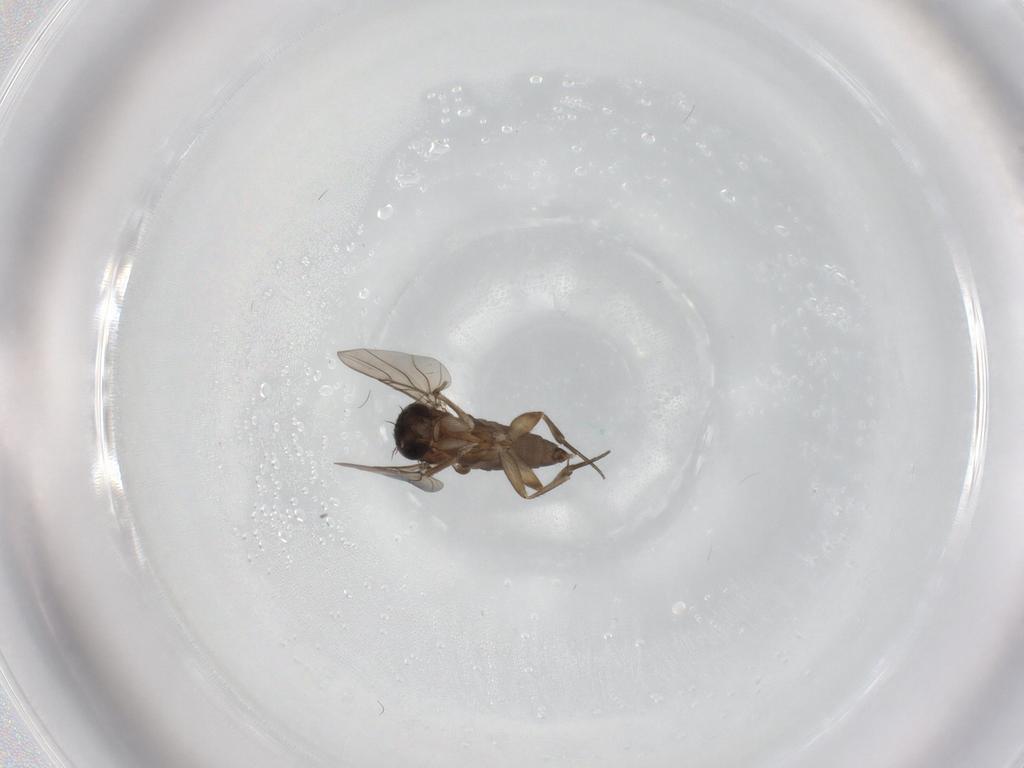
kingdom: Animalia
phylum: Arthropoda
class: Insecta
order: Diptera
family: Phoridae
